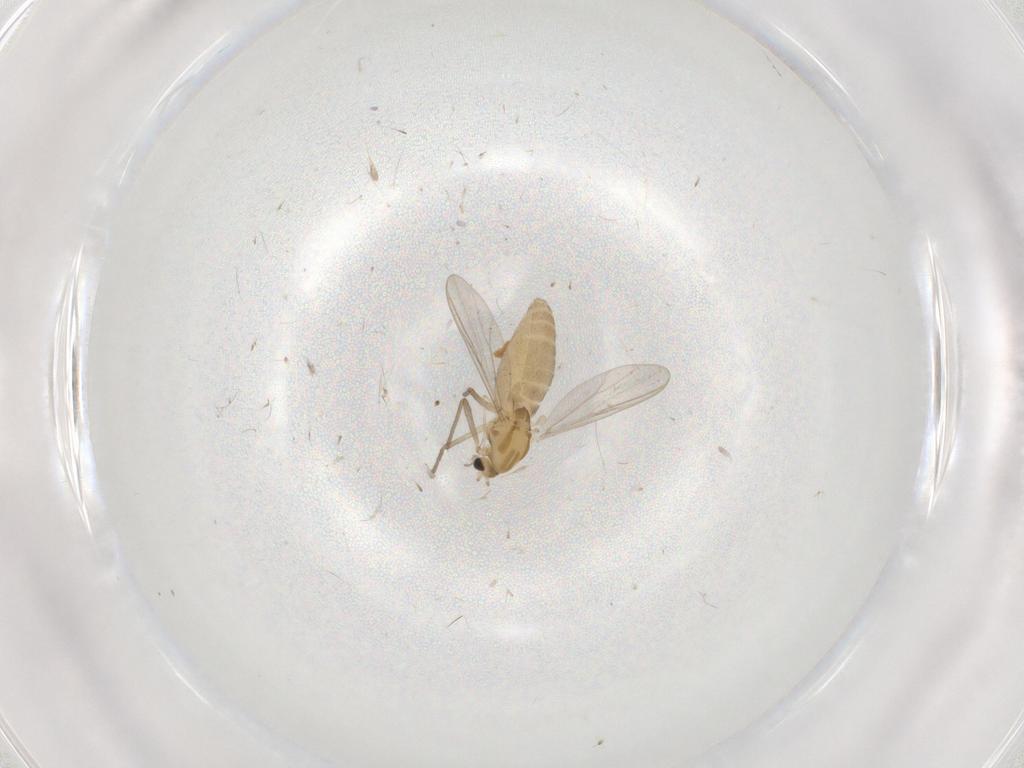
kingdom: Animalia
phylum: Arthropoda
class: Insecta
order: Diptera
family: Chironomidae
